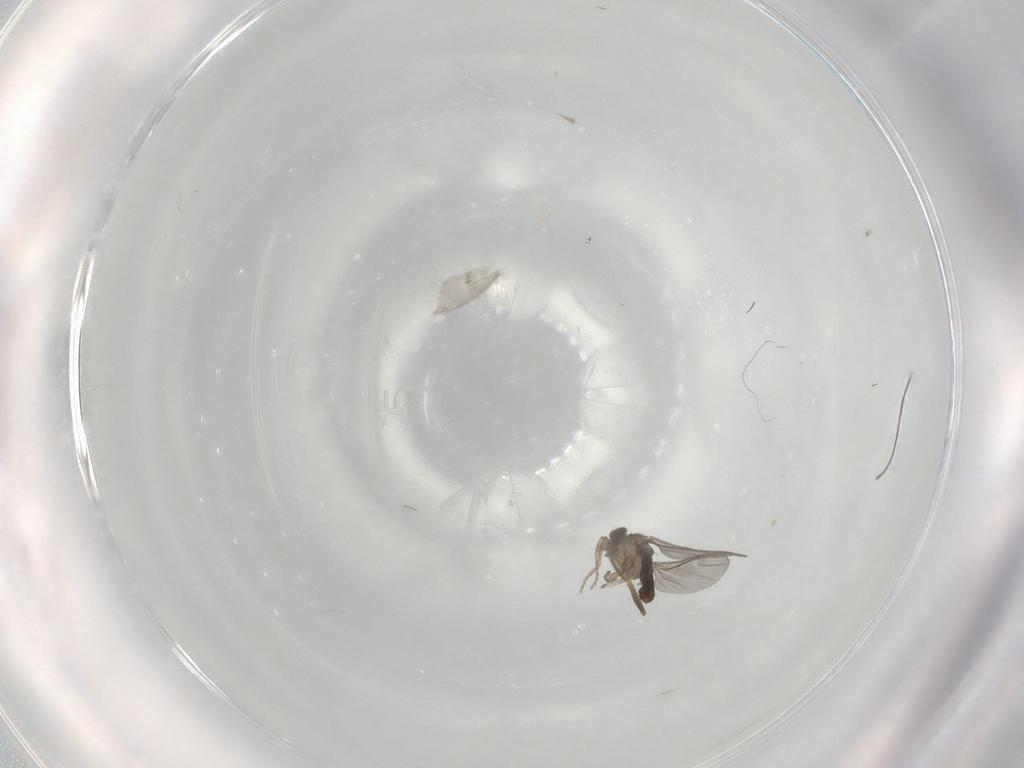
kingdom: Animalia
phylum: Arthropoda
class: Insecta
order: Diptera
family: Phoridae
